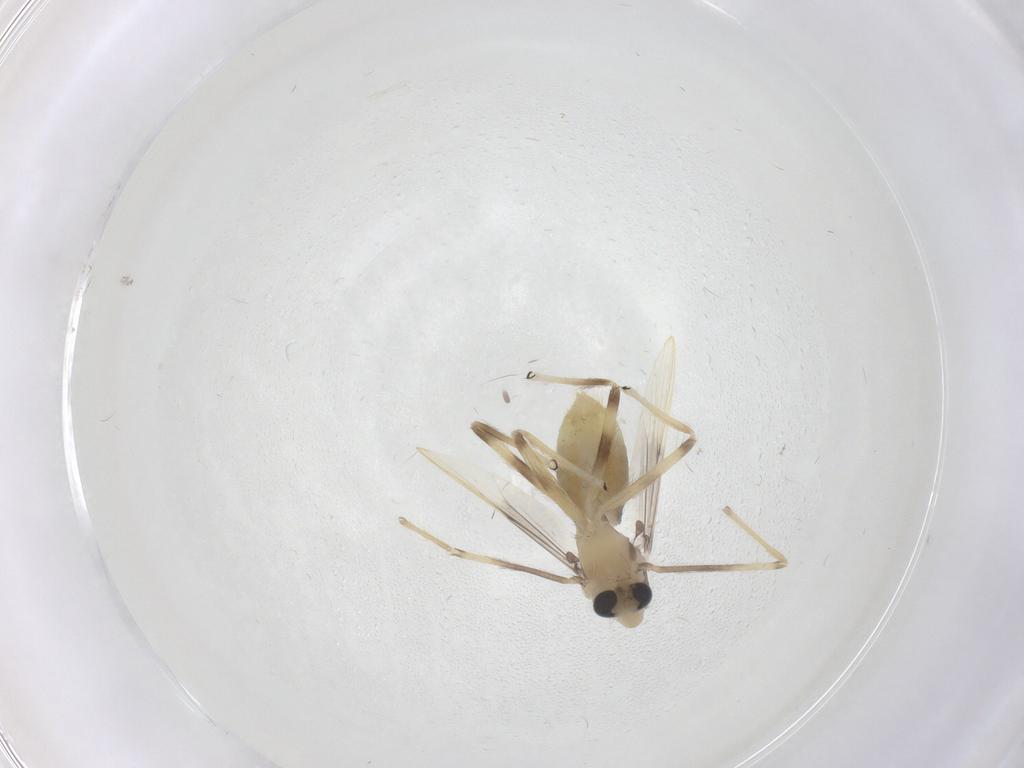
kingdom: Animalia
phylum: Arthropoda
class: Insecta
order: Diptera
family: Chironomidae
